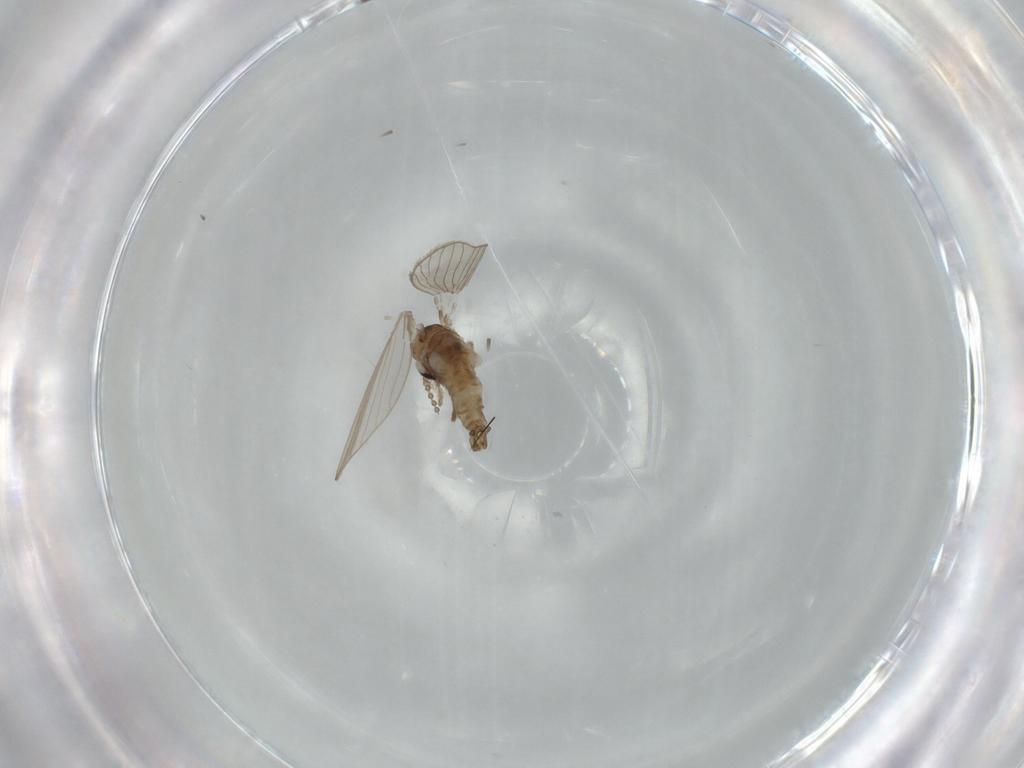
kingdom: Animalia
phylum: Arthropoda
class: Insecta
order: Diptera
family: Psychodidae
